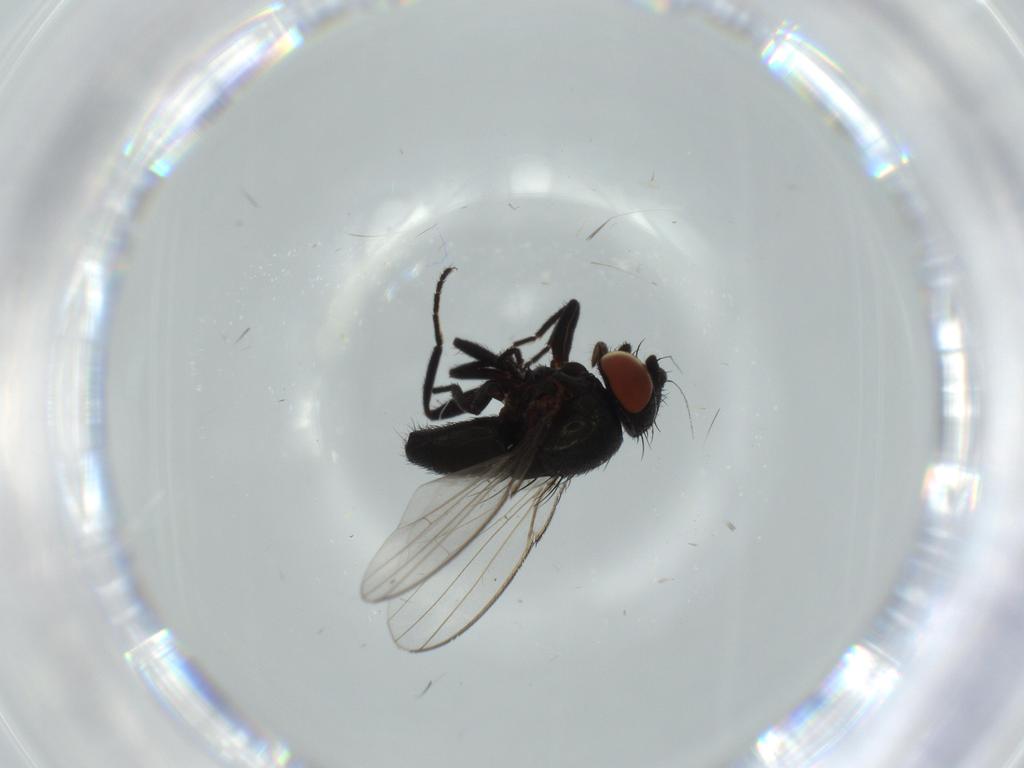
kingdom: Animalia
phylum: Arthropoda
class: Insecta
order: Diptera
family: Milichiidae
